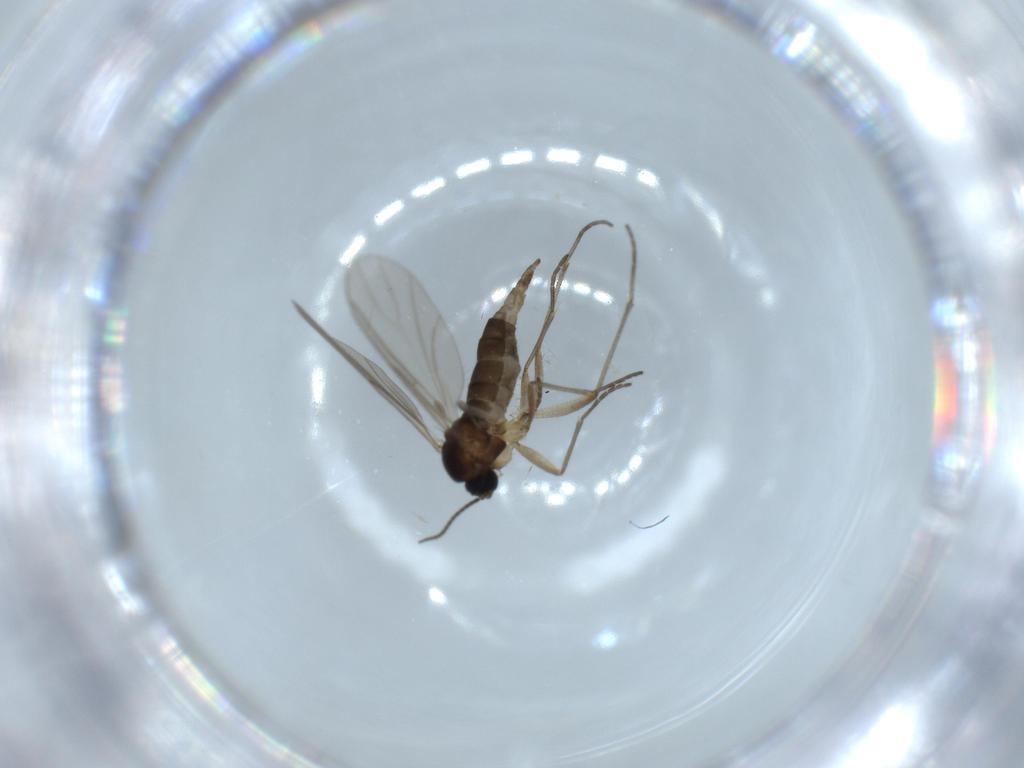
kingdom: Animalia
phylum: Arthropoda
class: Insecta
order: Diptera
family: Sciaridae
